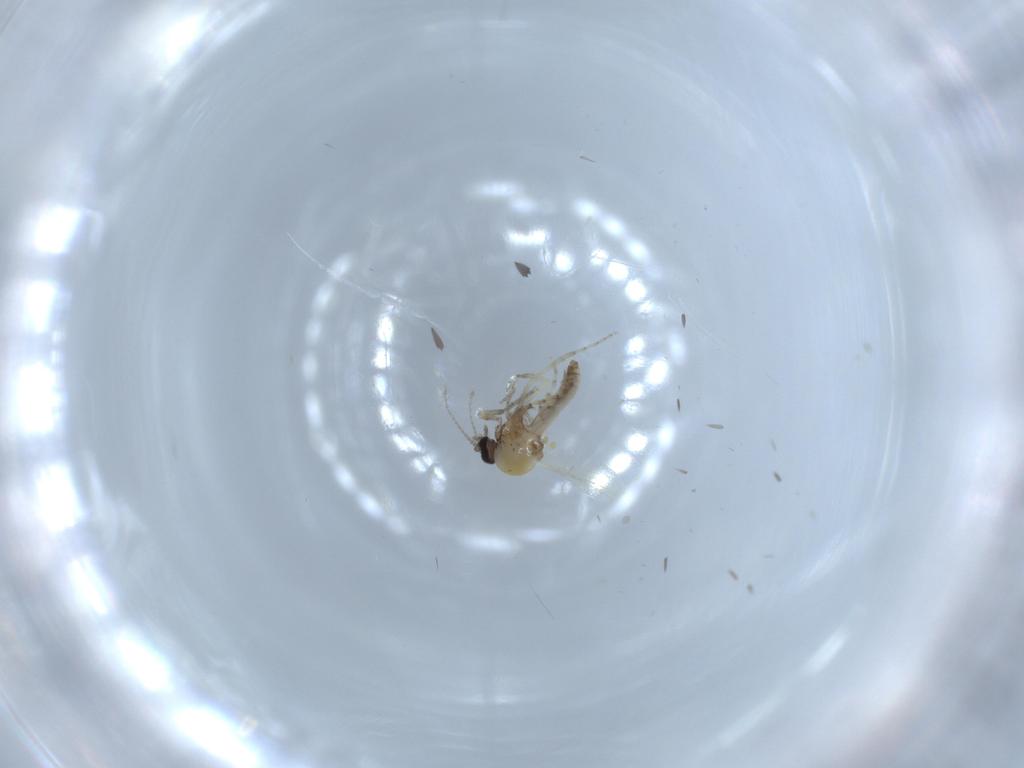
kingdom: Animalia
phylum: Arthropoda
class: Insecta
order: Diptera
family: Ceratopogonidae
